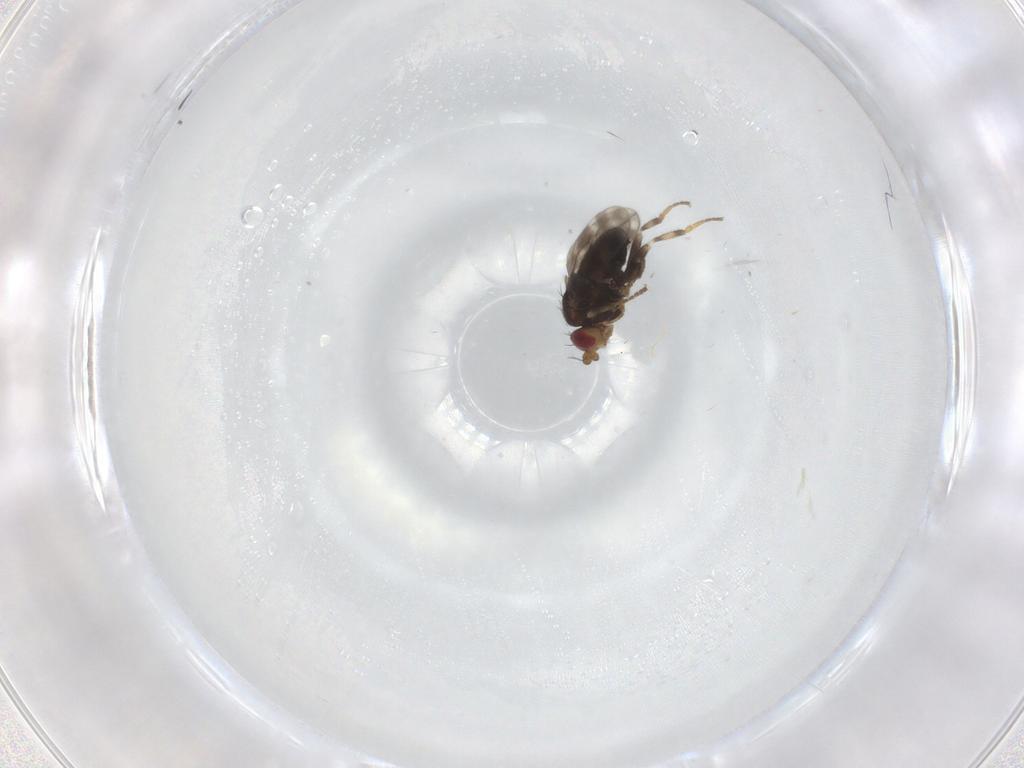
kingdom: Animalia
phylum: Arthropoda
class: Insecta
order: Diptera
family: Sphaeroceridae
